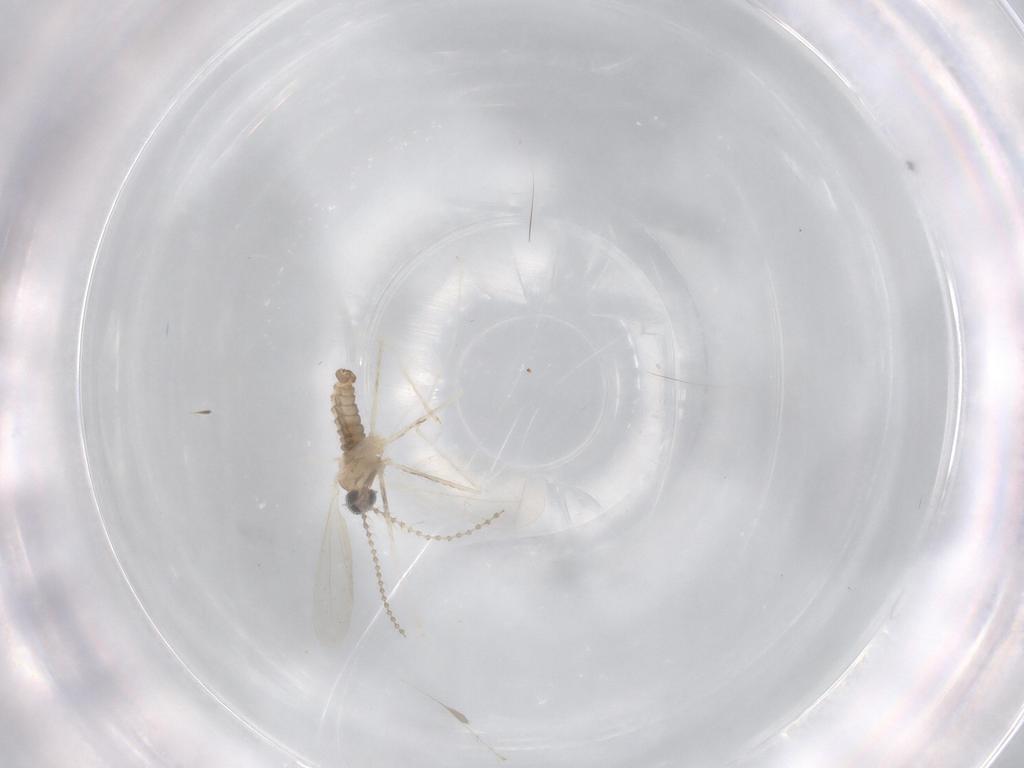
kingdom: Animalia
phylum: Arthropoda
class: Insecta
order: Diptera
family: Cecidomyiidae
